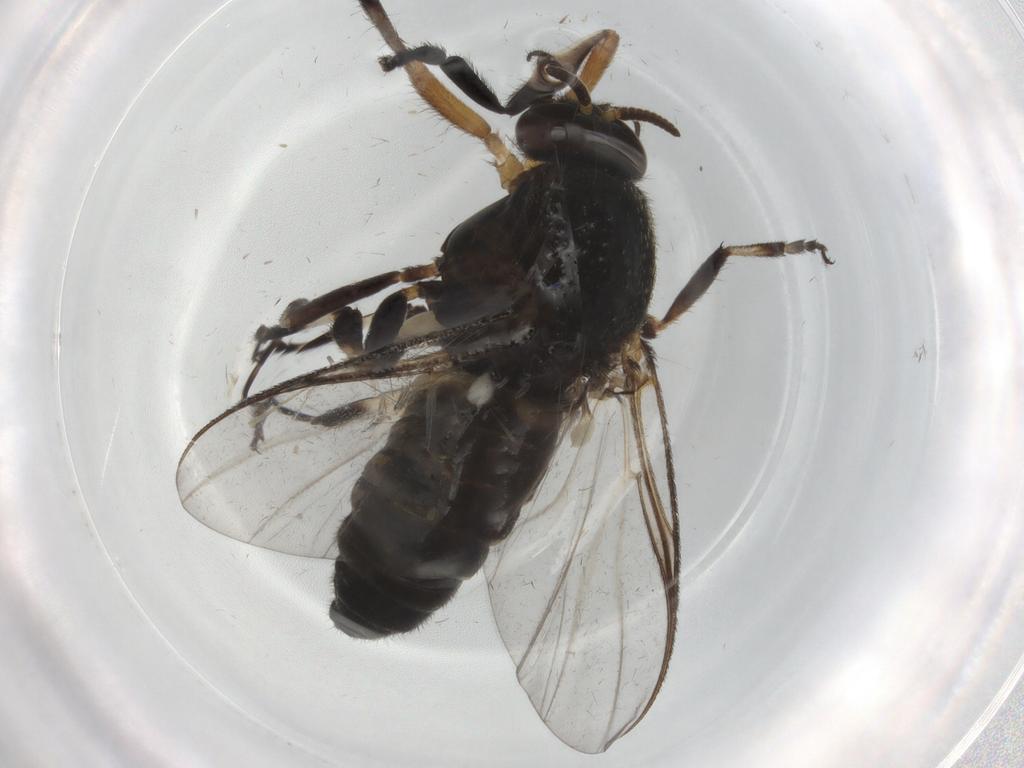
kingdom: Animalia
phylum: Arthropoda
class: Insecta
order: Diptera
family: Cecidomyiidae
